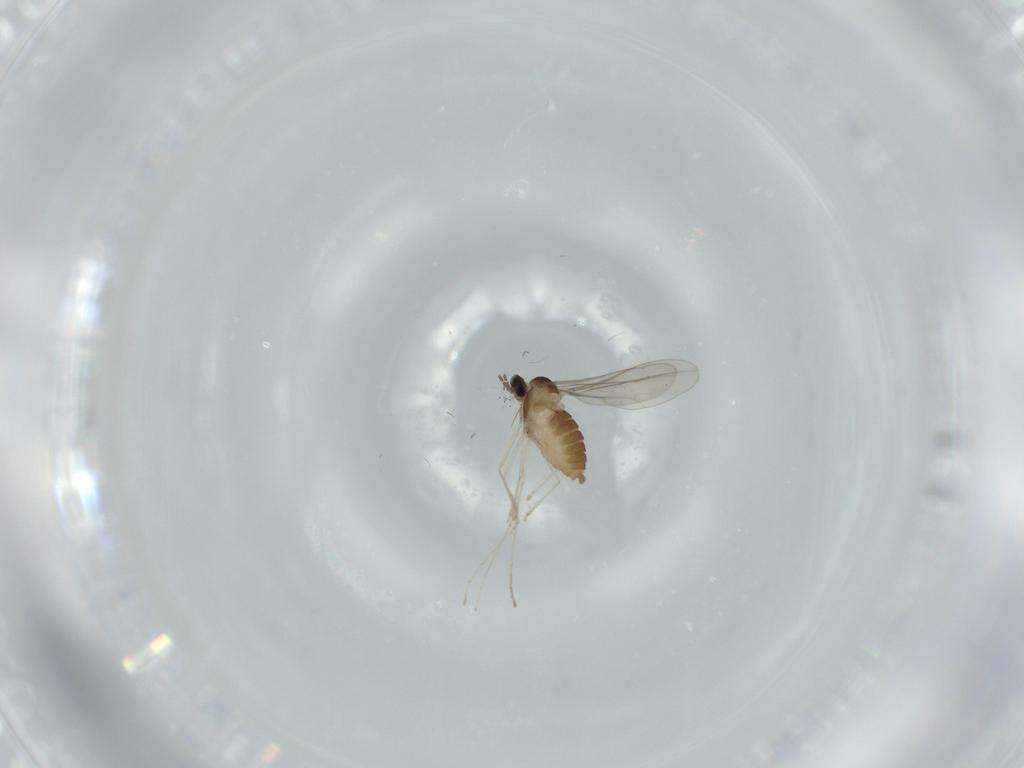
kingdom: Animalia
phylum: Arthropoda
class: Insecta
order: Diptera
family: Cecidomyiidae
